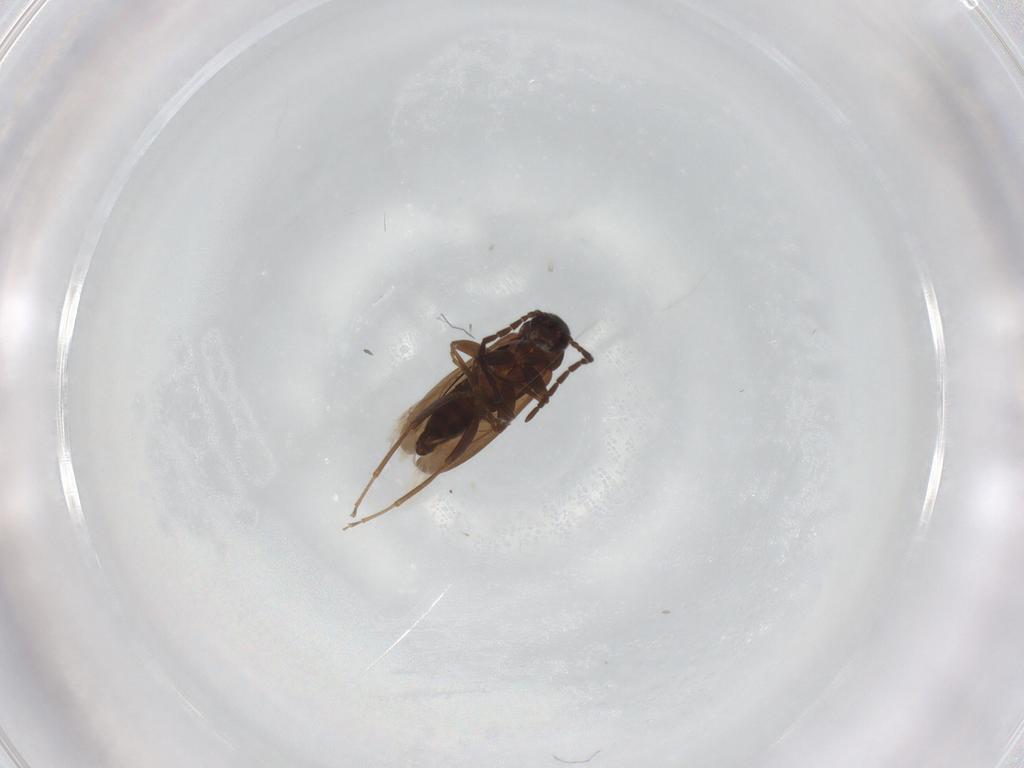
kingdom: Animalia
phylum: Arthropoda
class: Insecta
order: Coleoptera
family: Scraptiidae
